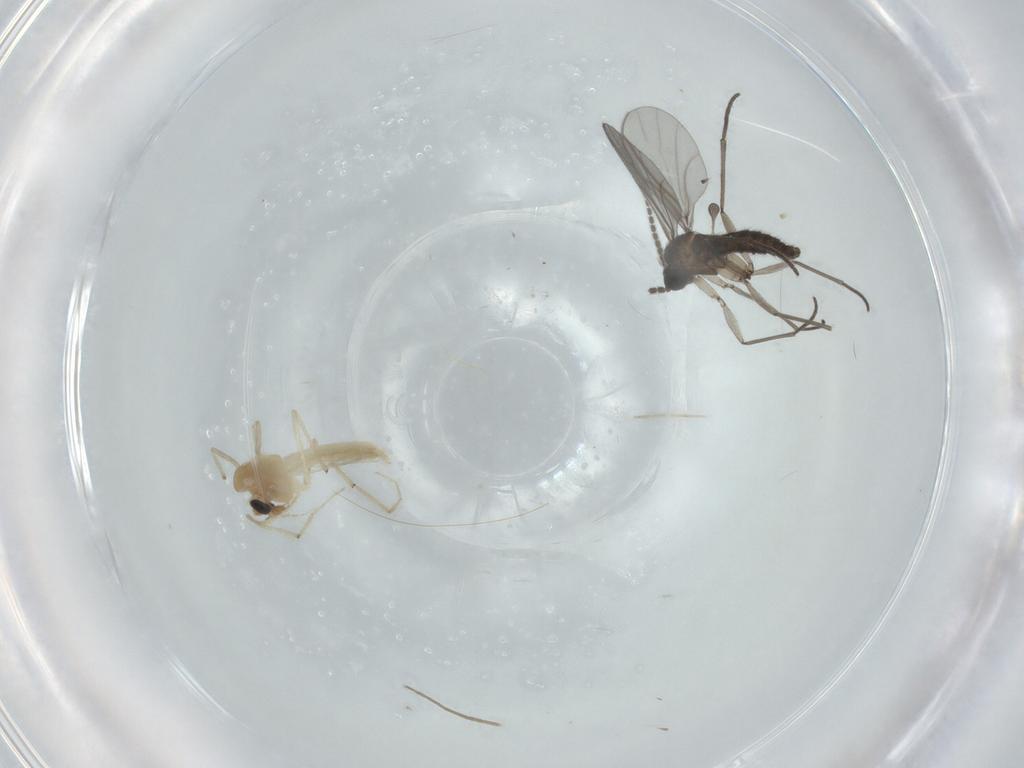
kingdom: Animalia
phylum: Arthropoda
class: Insecta
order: Diptera
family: Chironomidae
